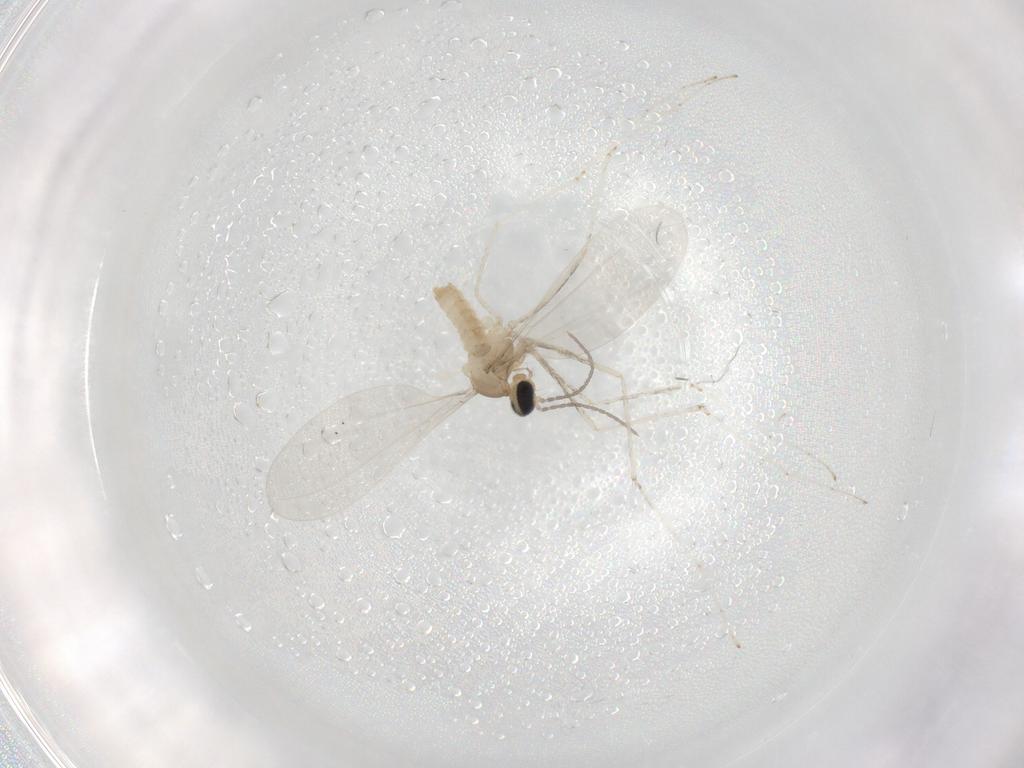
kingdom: Animalia
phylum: Arthropoda
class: Insecta
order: Diptera
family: Cecidomyiidae
